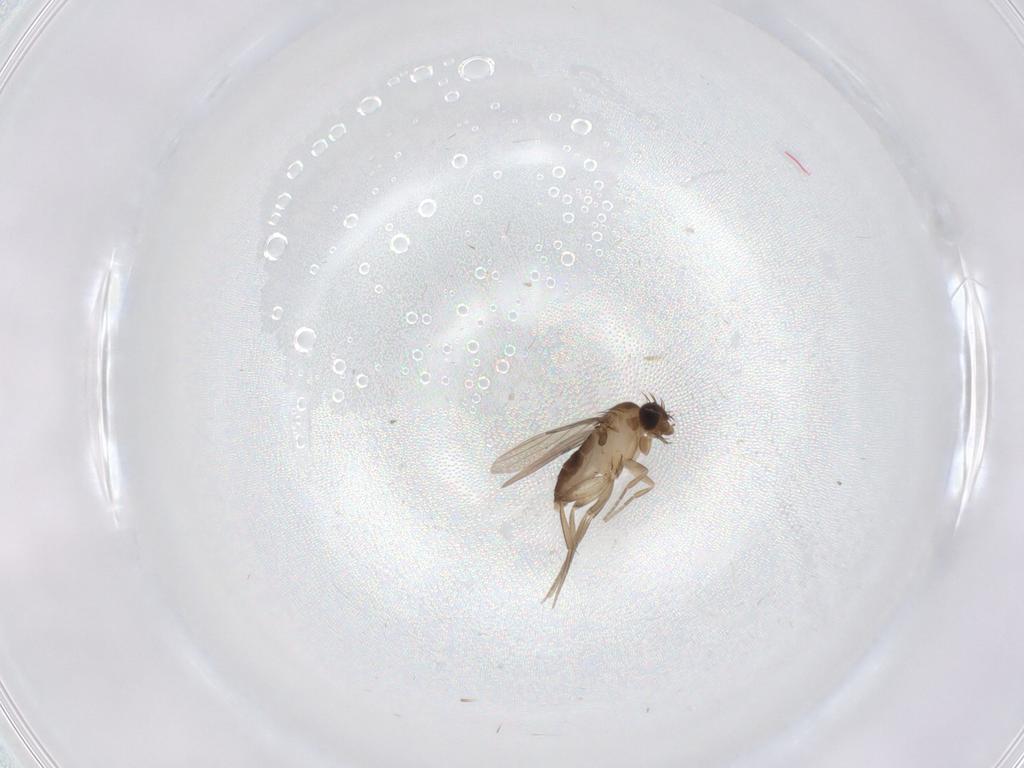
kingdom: Animalia
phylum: Arthropoda
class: Insecta
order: Diptera
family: Phoridae
